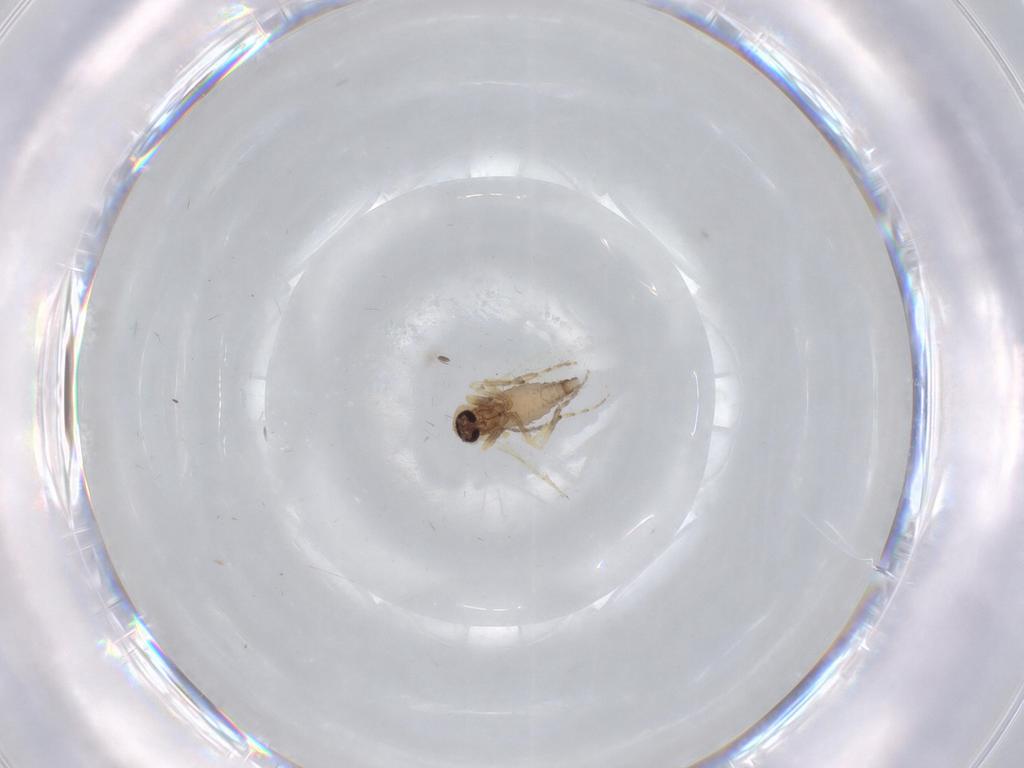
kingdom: Animalia
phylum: Arthropoda
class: Insecta
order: Diptera
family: Ceratopogonidae
